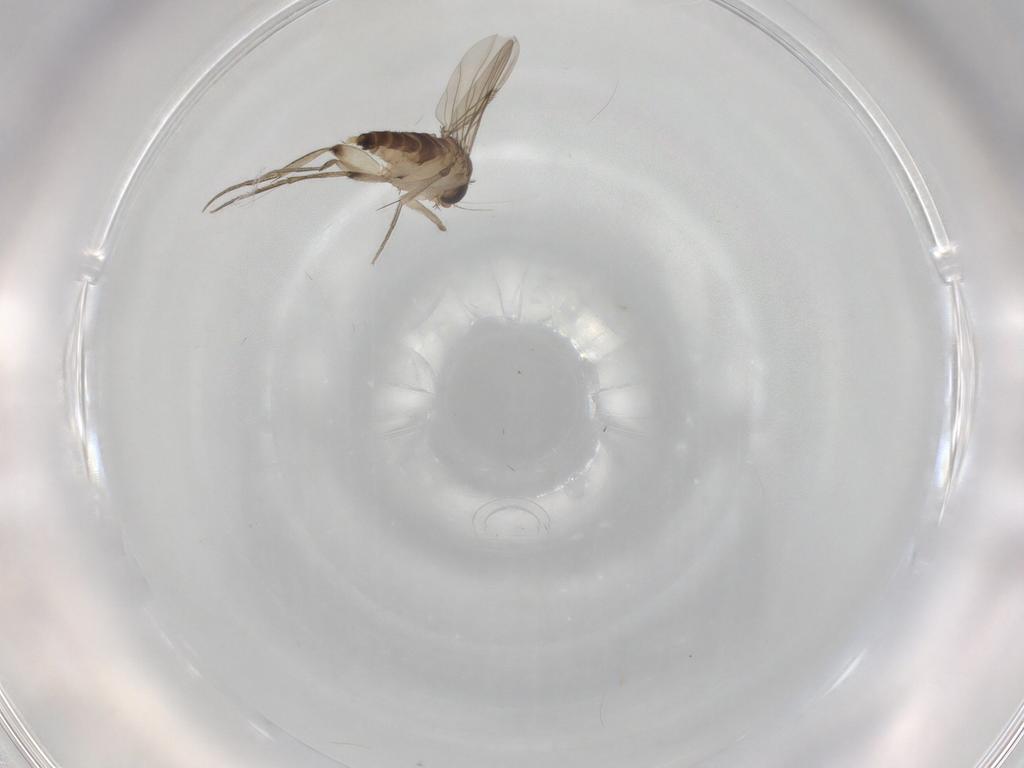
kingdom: Animalia
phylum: Arthropoda
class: Insecta
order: Diptera
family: Phoridae
